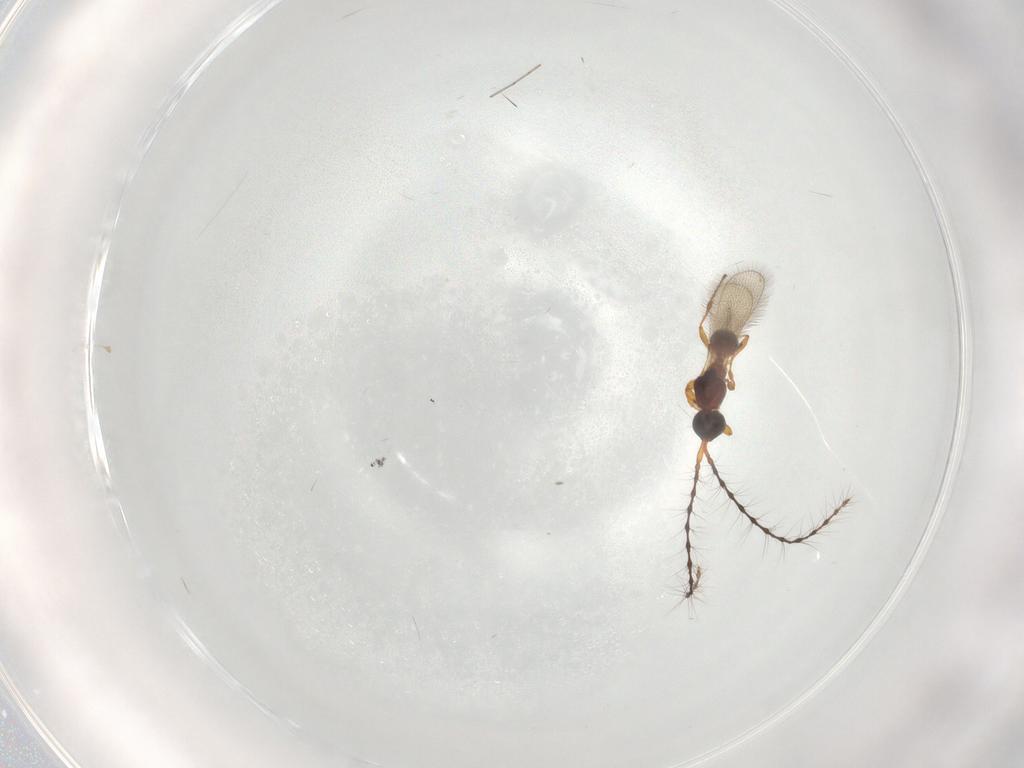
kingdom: Animalia
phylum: Arthropoda
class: Insecta
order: Hymenoptera
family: Diapriidae
